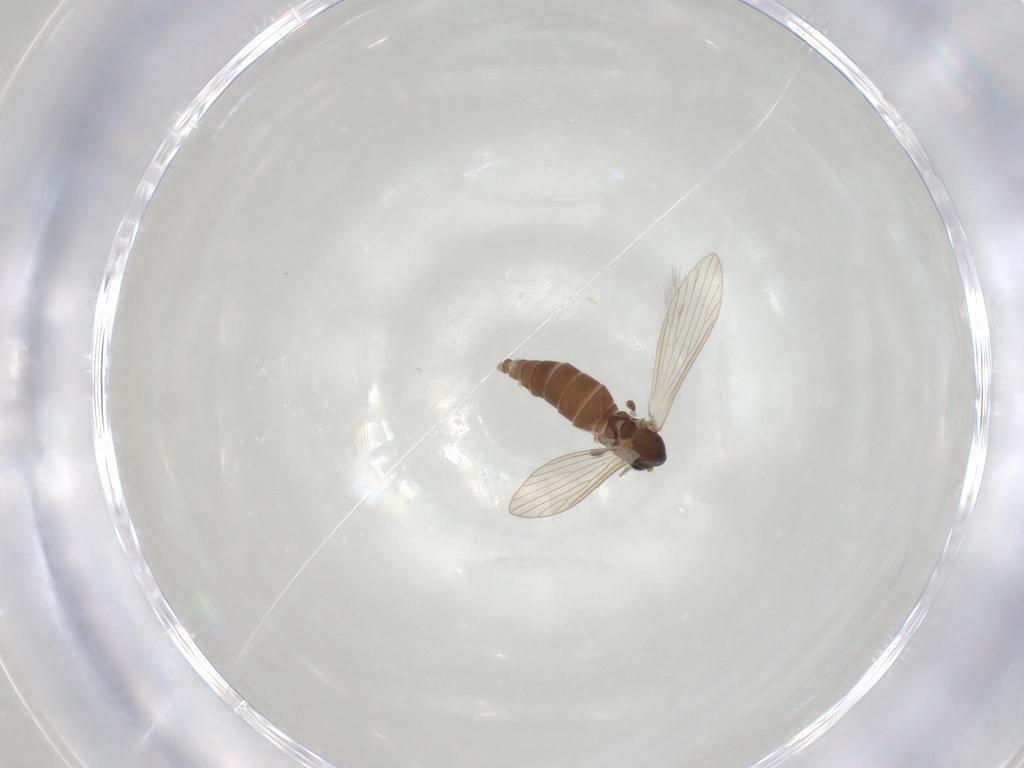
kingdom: Animalia
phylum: Arthropoda
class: Insecta
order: Diptera
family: Psychodidae
